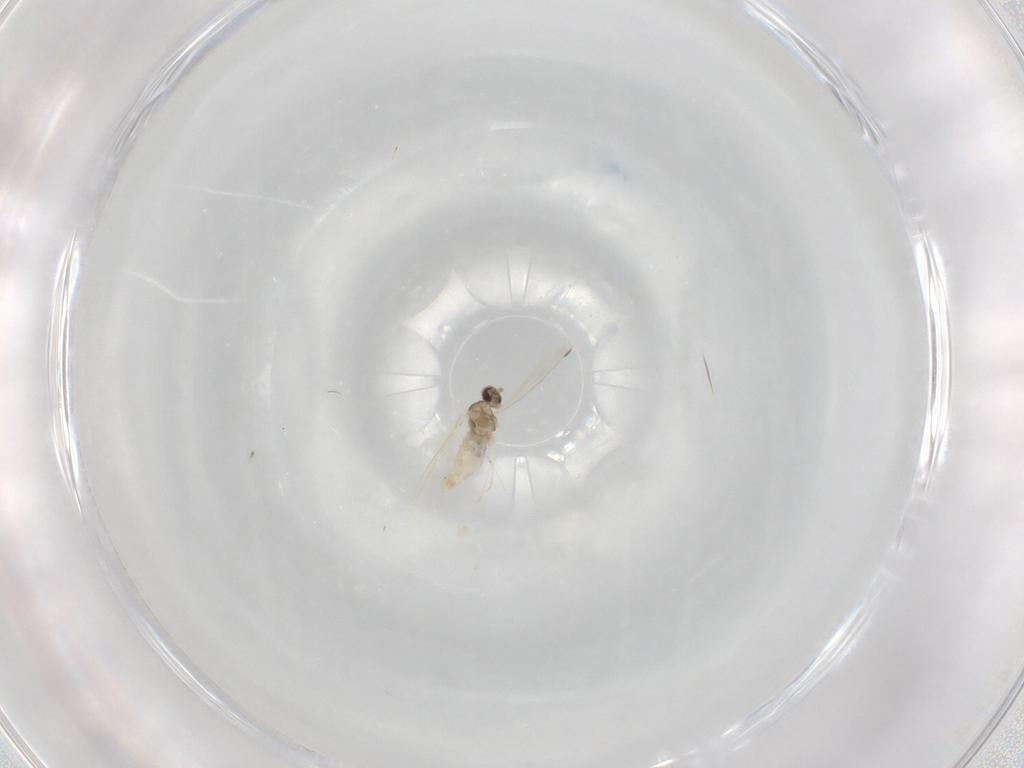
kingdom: Animalia
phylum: Arthropoda
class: Insecta
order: Diptera
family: Cecidomyiidae
